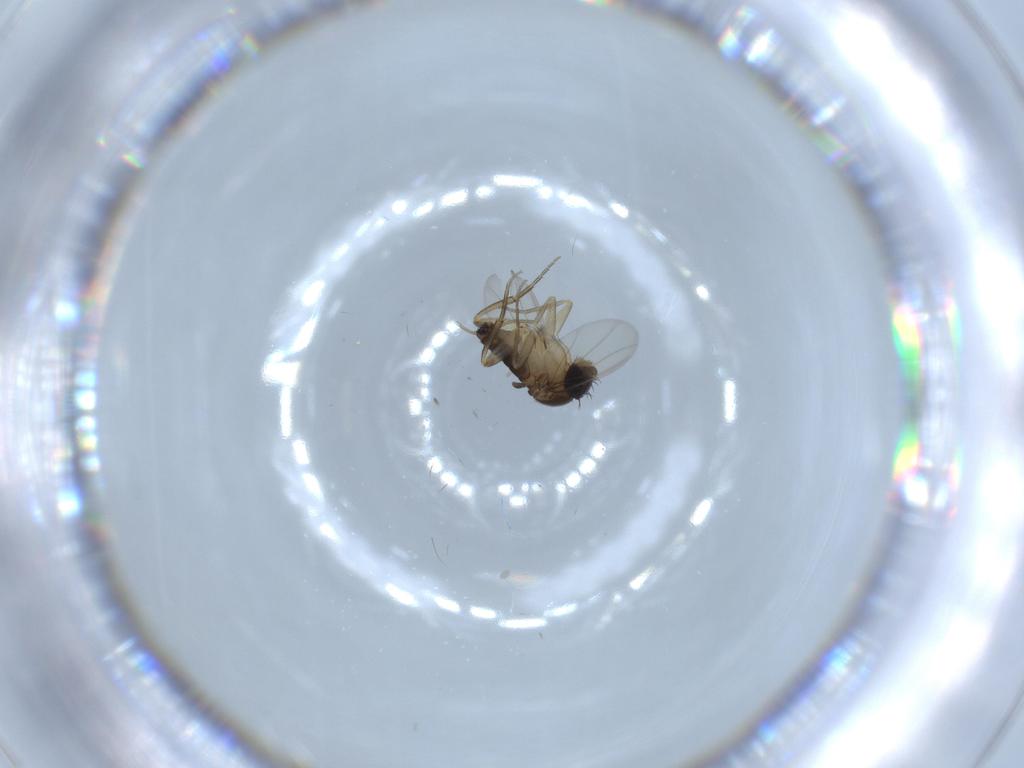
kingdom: Animalia
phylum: Arthropoda
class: Insecta
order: Diptera
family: Phoridae
